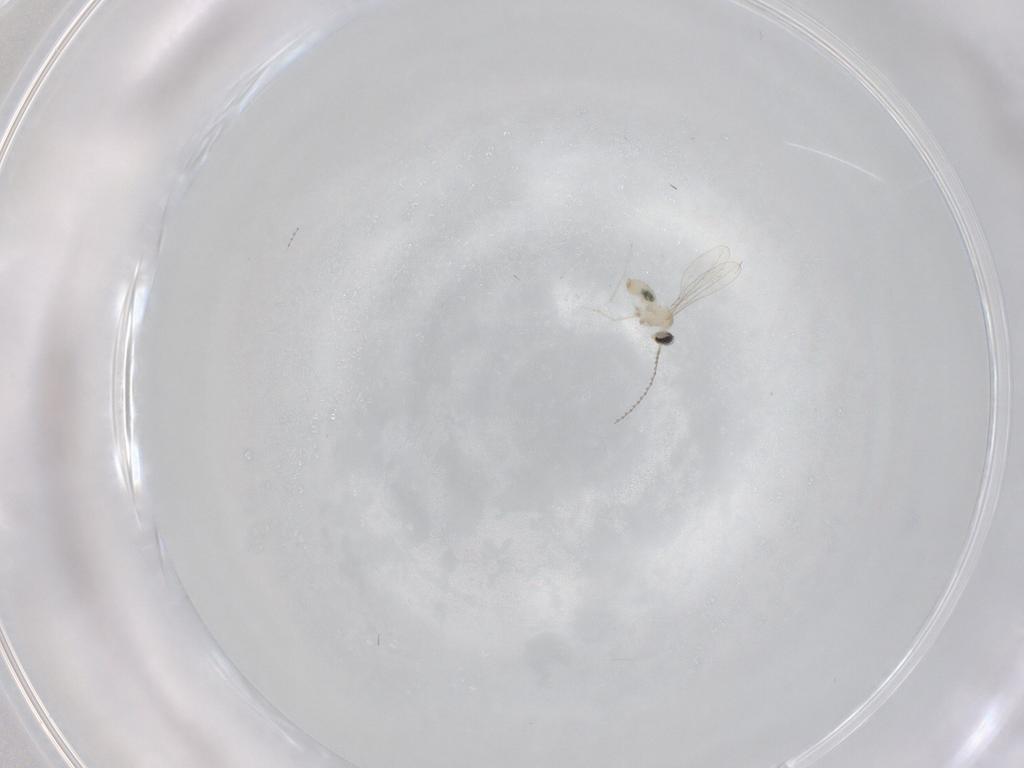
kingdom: Animalia
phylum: Arthropoda
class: Insecta
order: Diptera
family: Cecidomyiidae
